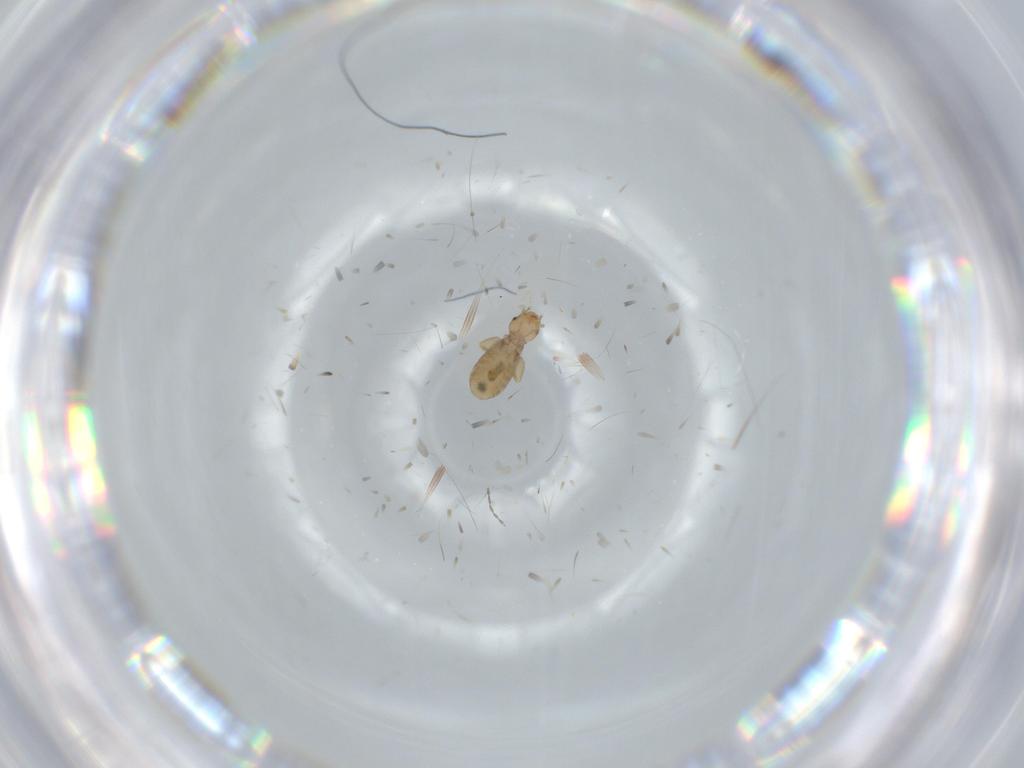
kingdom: Animalia
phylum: Arthropoda
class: Insecta
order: Psocodea
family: Liposcelididae
